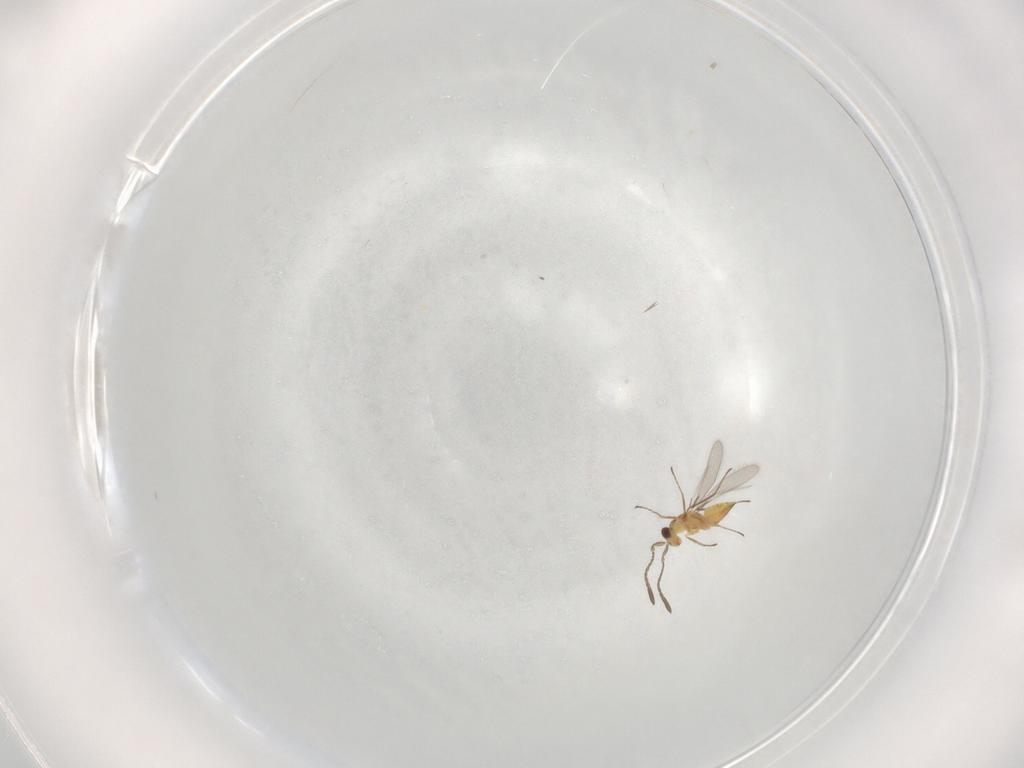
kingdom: Animalia
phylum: Arthropoda
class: Insecta
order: Hymenoptera
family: Mymaridae
